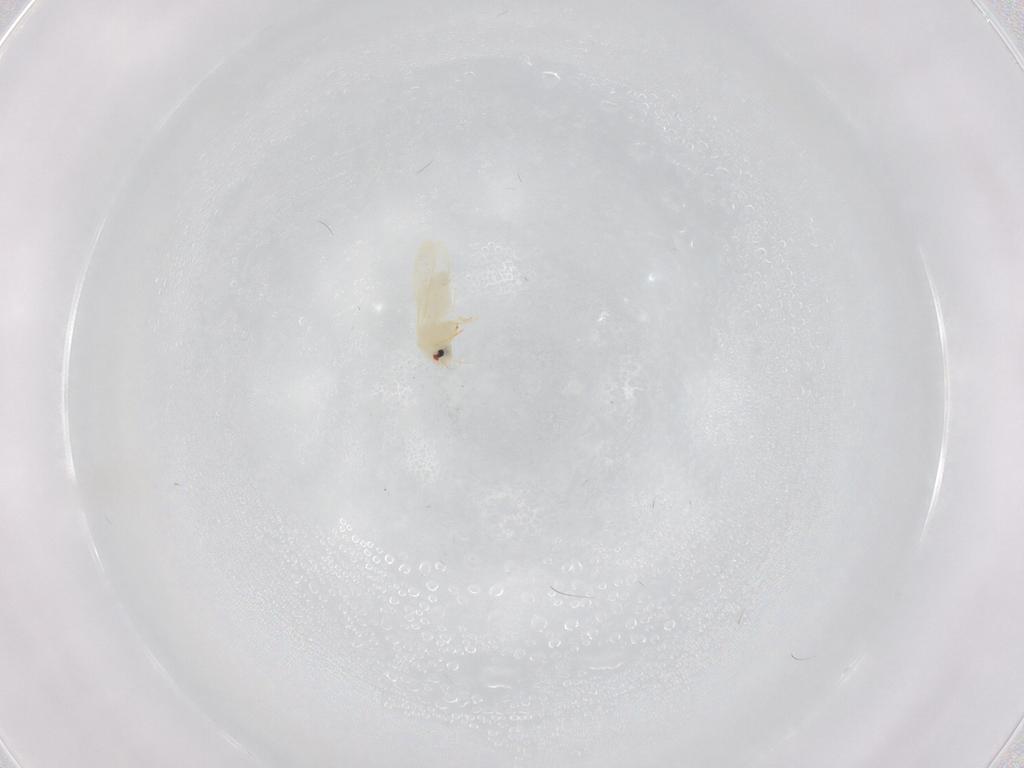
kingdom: Animalia
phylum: Arthropoda
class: Insecta
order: Hemiptera
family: Aleyrodidae
